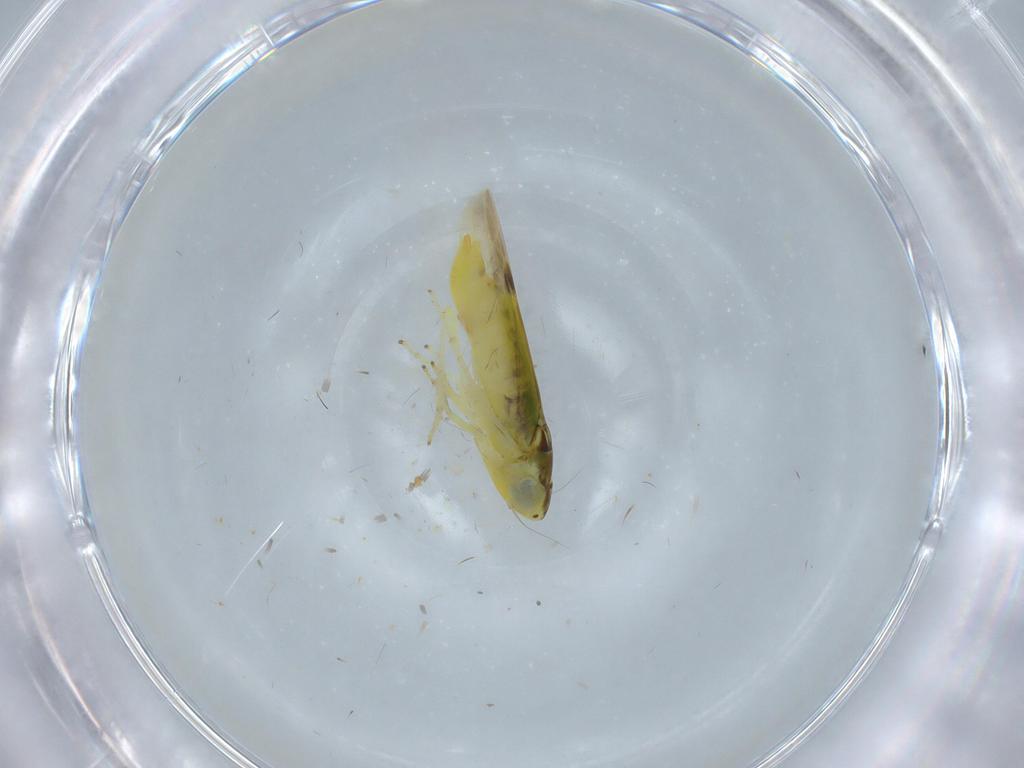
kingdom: Animalia
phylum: Arthropoda
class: Insecta
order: Hemiptera
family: Cicadellidae
